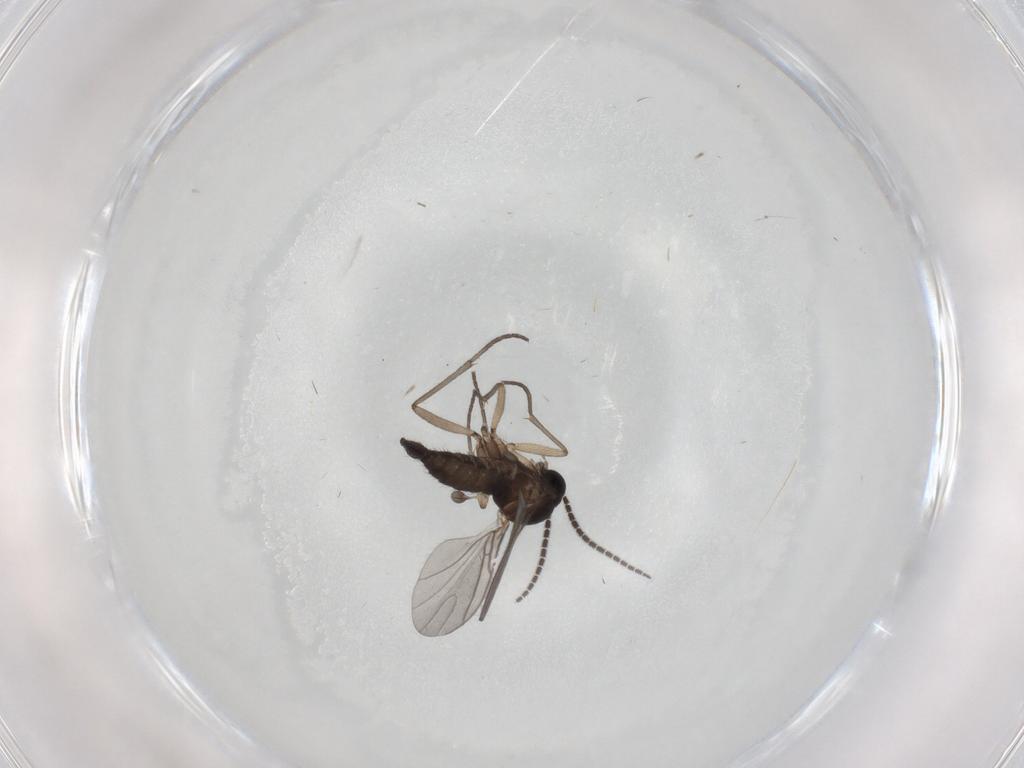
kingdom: Animalia
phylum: Arthropoda
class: Insecta
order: Diptera
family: Sciaridae
